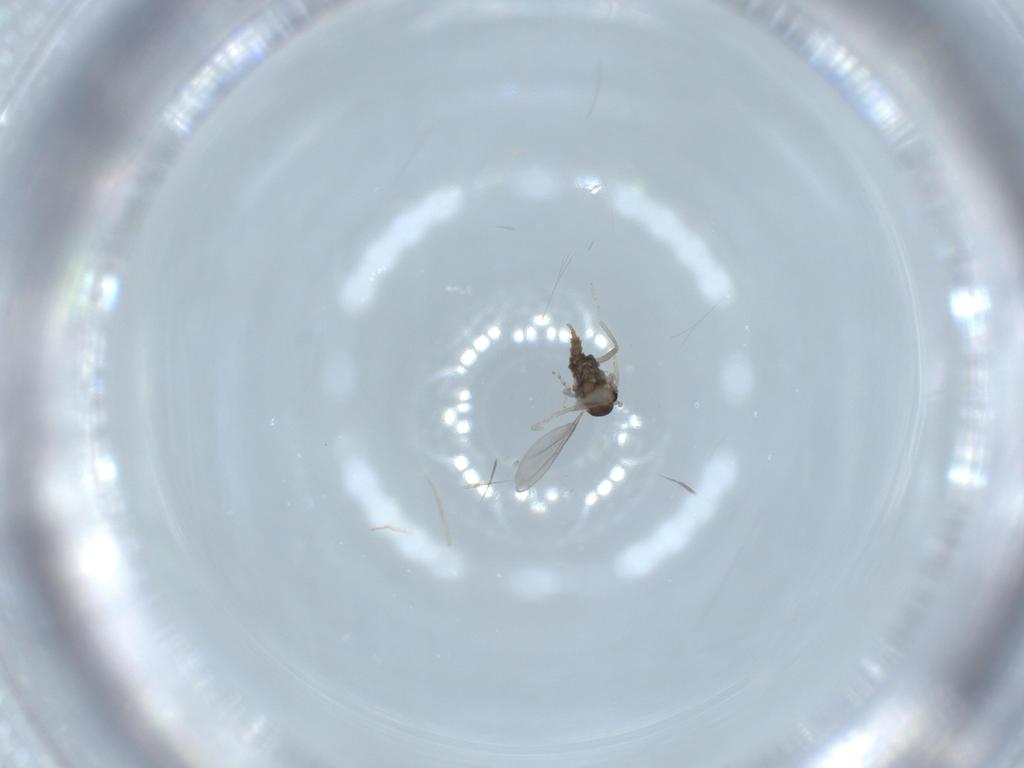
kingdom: Animalia
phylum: Arthropoda
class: Insecta
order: Diptera
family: Cecidomyiidae
